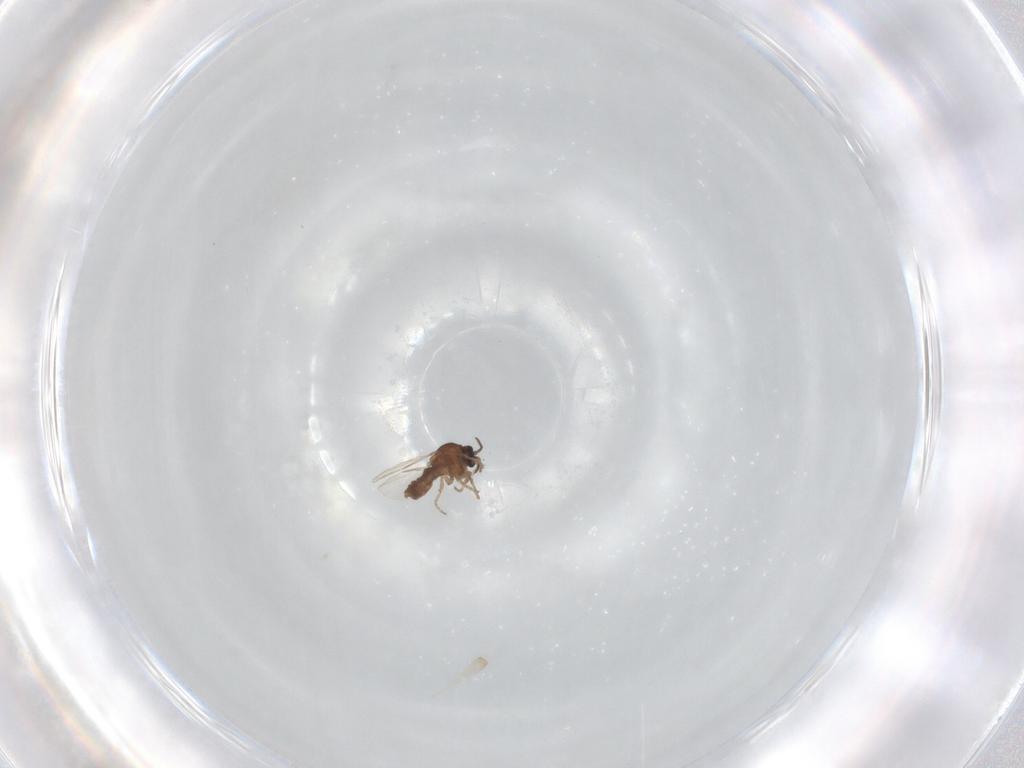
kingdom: Animalia
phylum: Arthropoda
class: Insecta
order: Diptera
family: Ceratopogonidae
